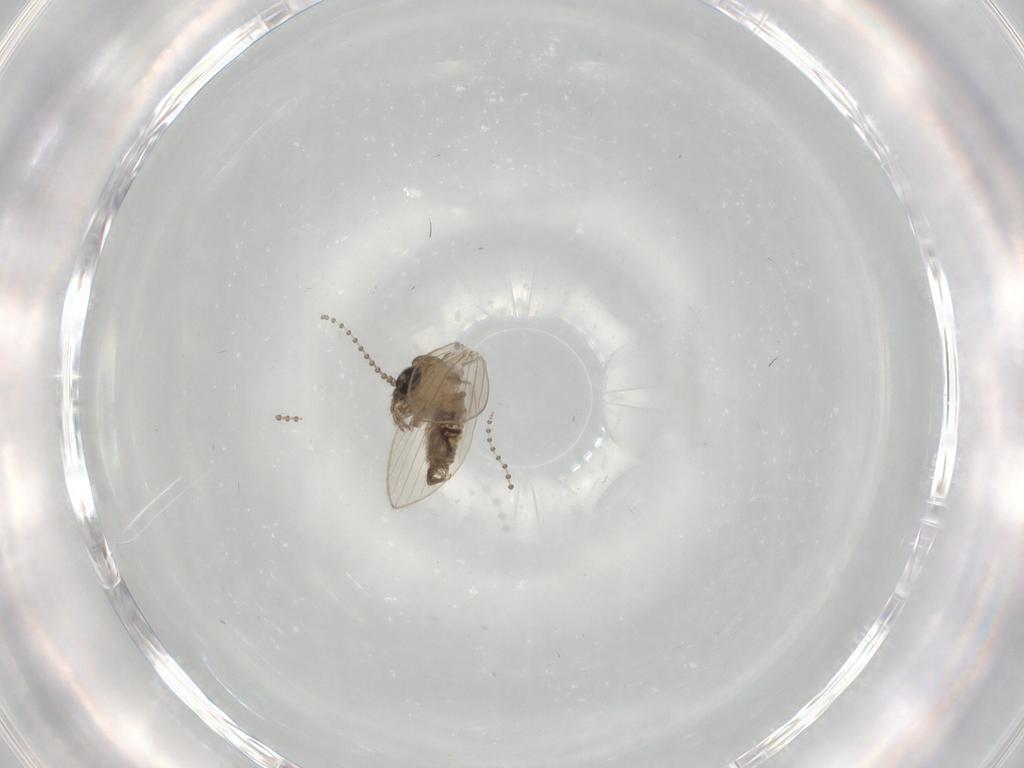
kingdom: Animalia
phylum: Arthropoda
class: Insecta
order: Diptera
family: Psychodidae
